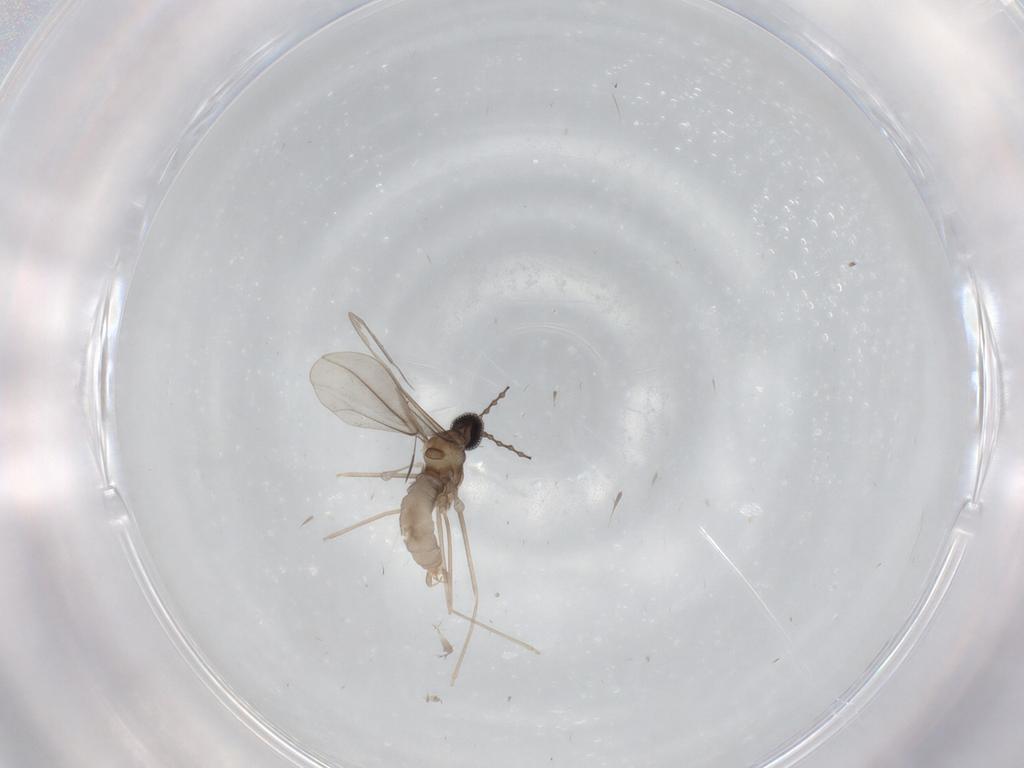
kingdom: Animalia
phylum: Arthropoda
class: Insecta
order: Diptera
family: Phoridae
